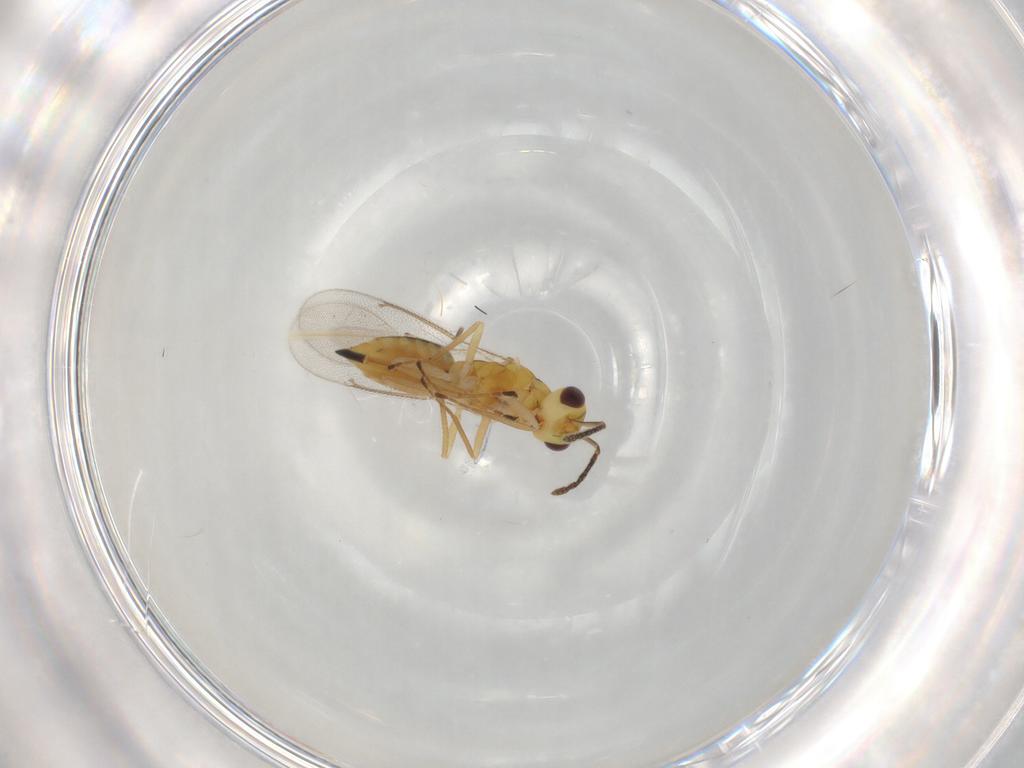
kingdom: Animalia
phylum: Arthropoda
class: Insecta
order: Hymenoptera
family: Eulophidae
